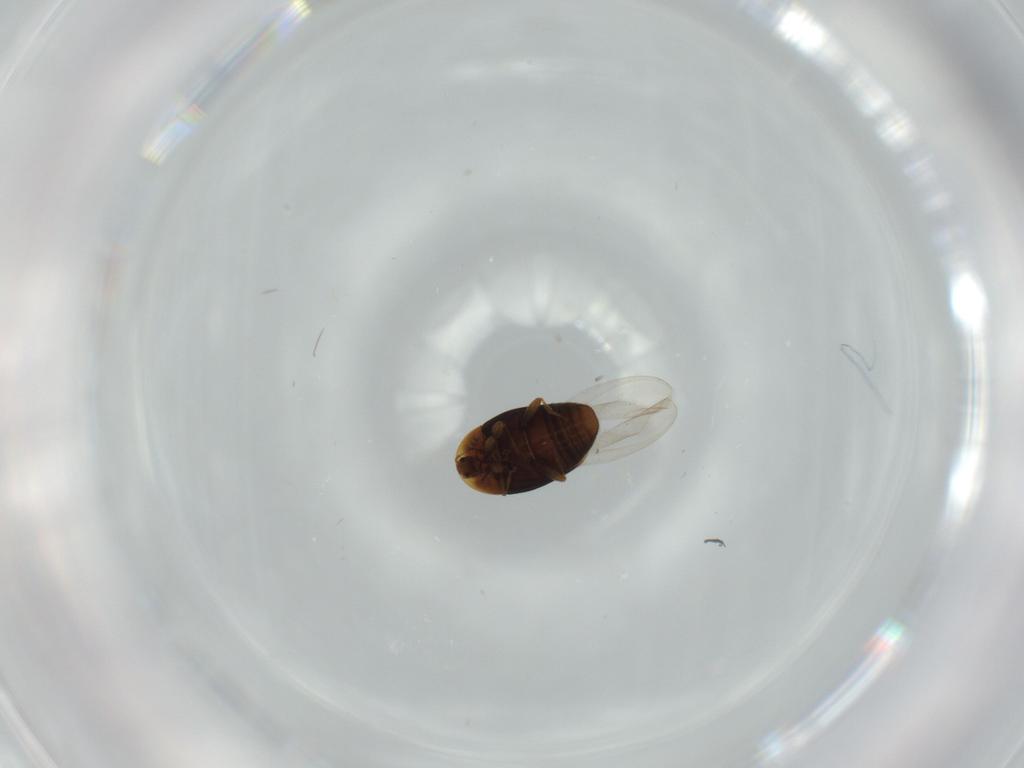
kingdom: Animalia
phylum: Arthropoda
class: Insecta
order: Coleoptera
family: Corylophidae
